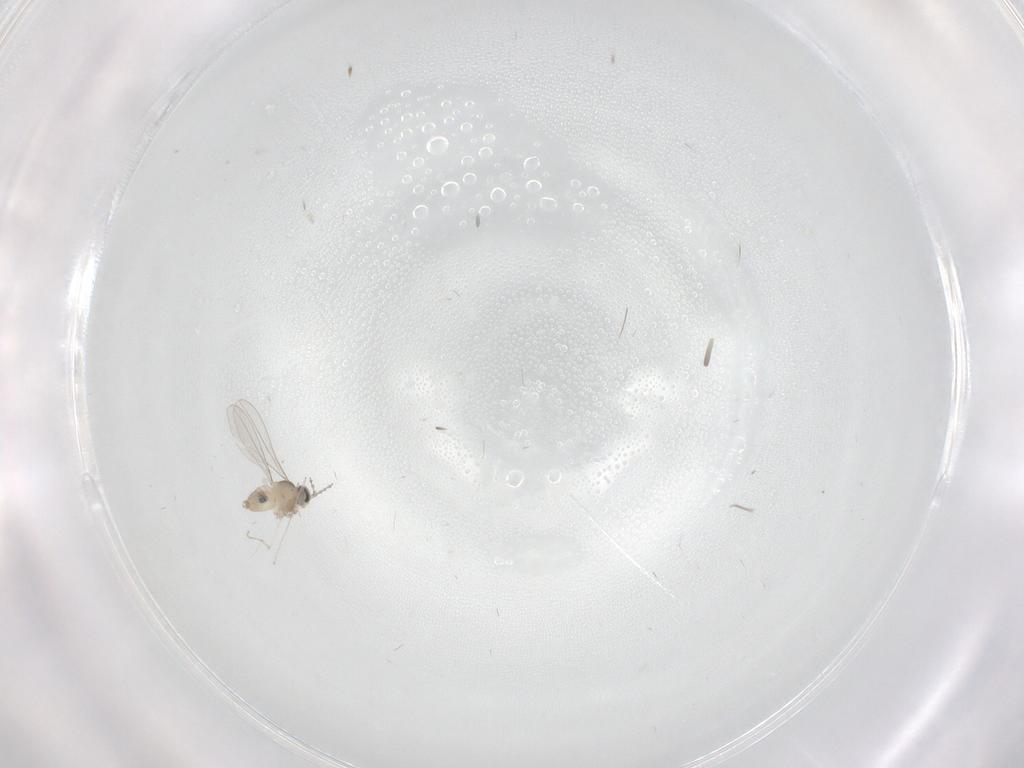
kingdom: Animalia
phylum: Arthropoda
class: Insecta
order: Diptera
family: Cecidomyiidae
